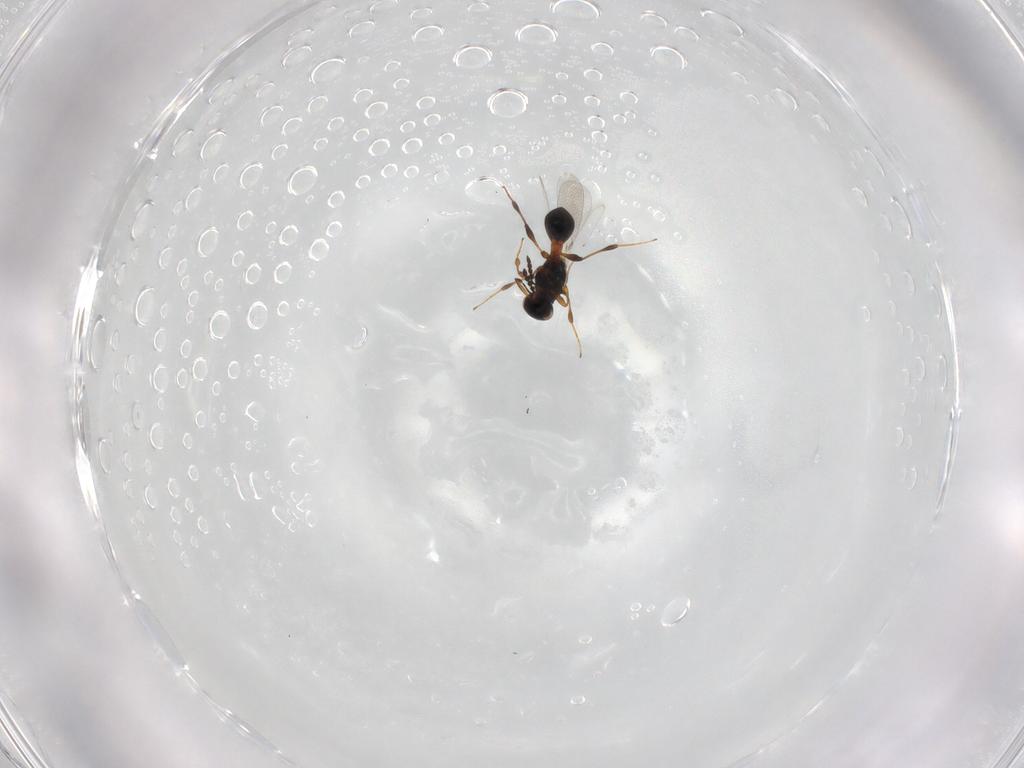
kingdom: Animalia
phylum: Arthropoda
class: Insecta
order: Hymenoptera
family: Platygastridae
